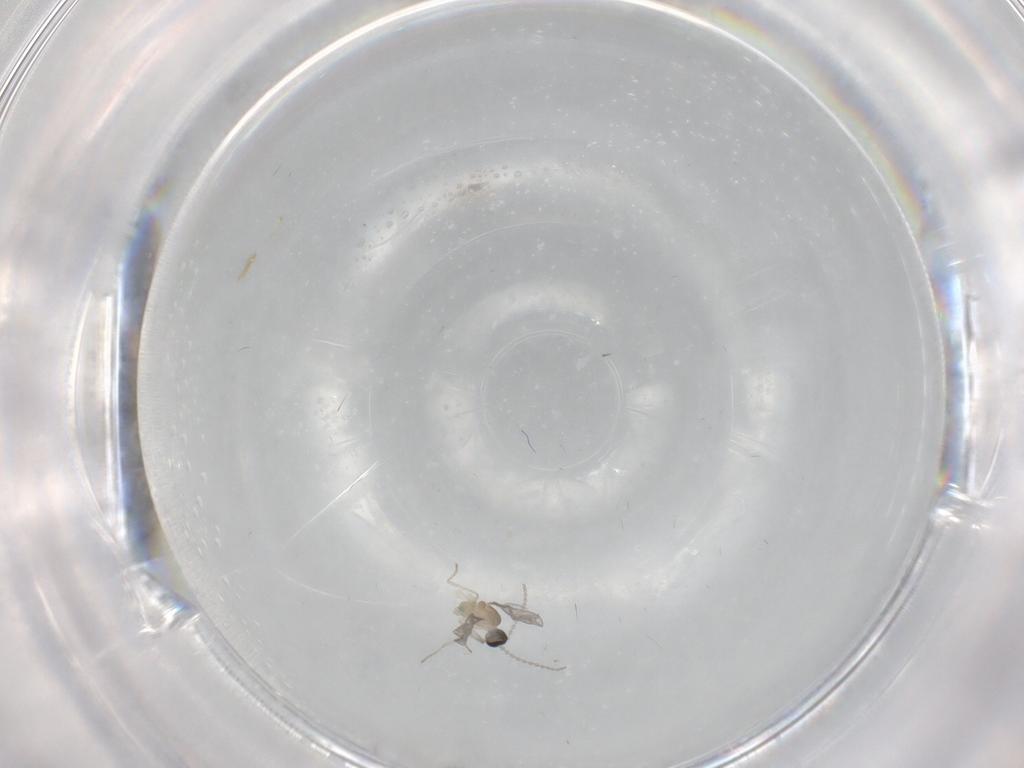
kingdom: Animalia
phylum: Arthropoda
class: Insecta
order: Diptera
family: Cecidomyiidae
